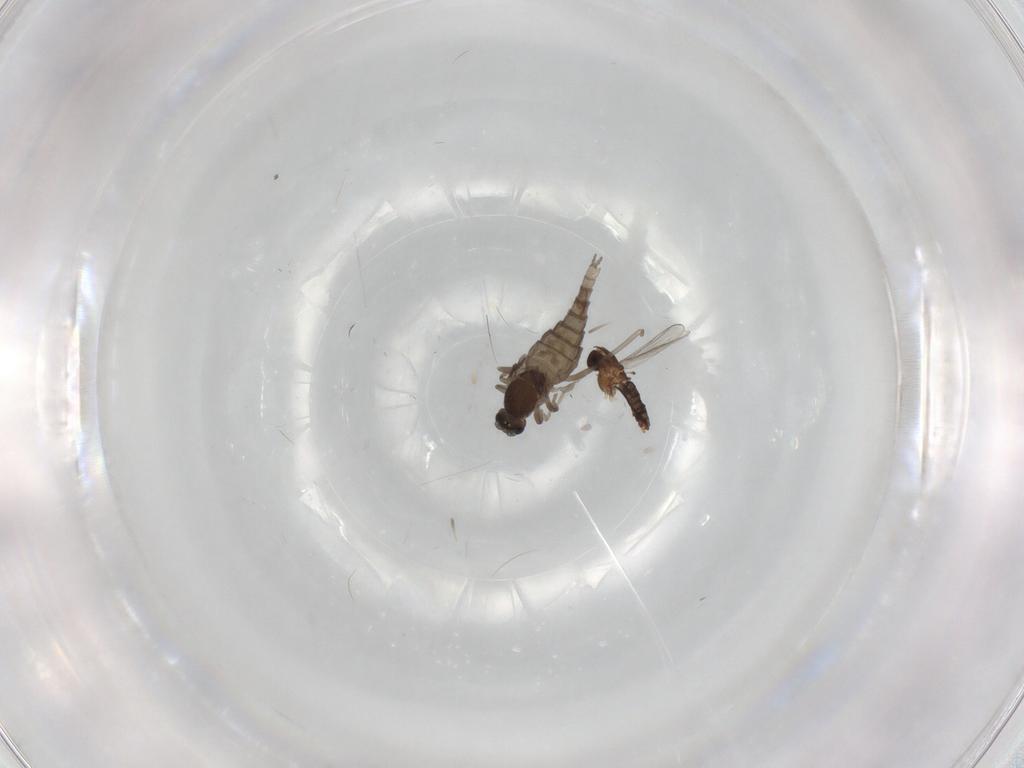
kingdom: Animalia
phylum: Arthropoda
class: Insecta
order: Diptera
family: Chironomidae
